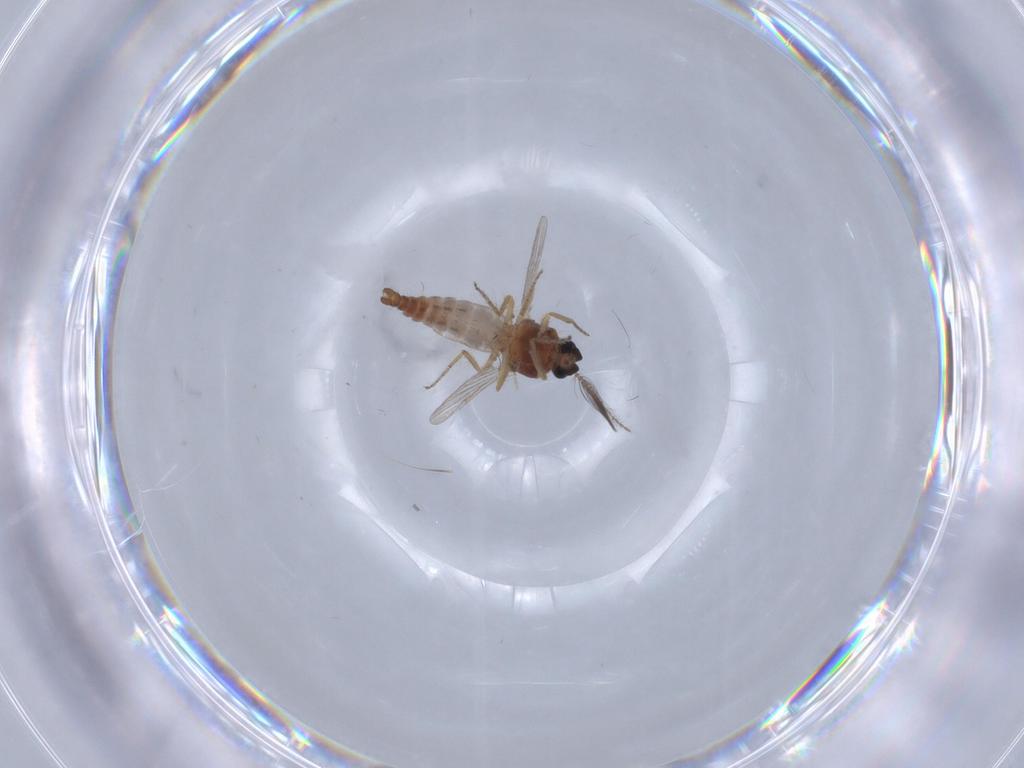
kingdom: Animalia
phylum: Arthropoda
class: Insecta
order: Diptera
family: Ceratopogonidae
